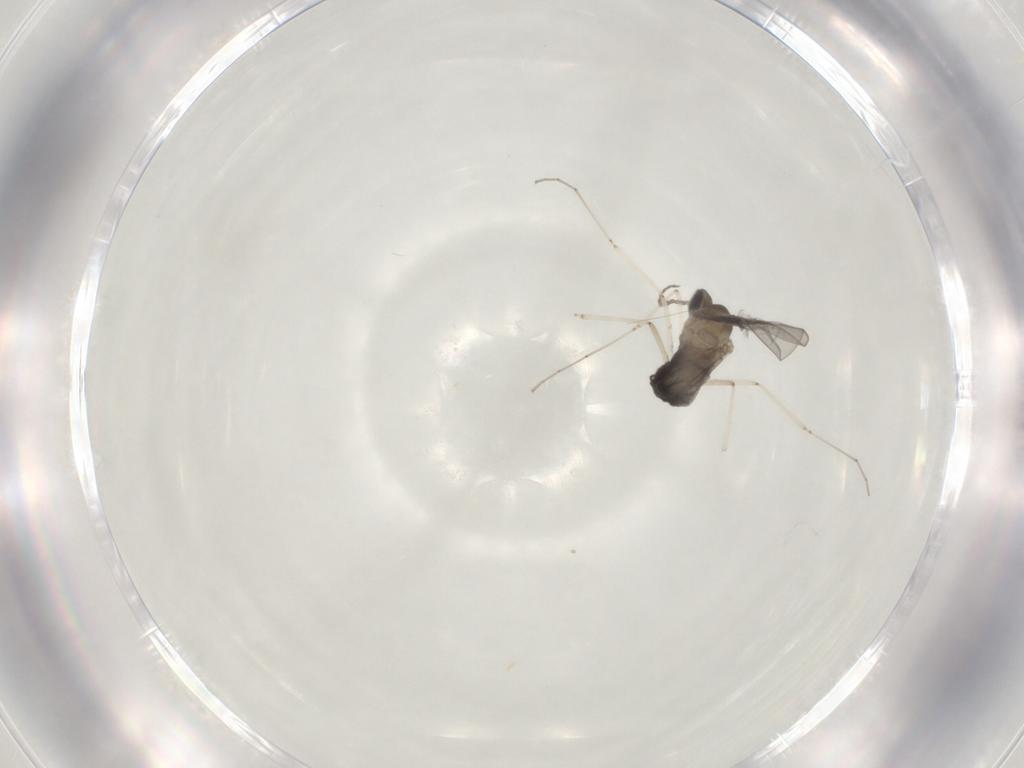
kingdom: Animalia
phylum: Arthropoda
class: Insecta
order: Diptera
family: Cecidomyiidae
